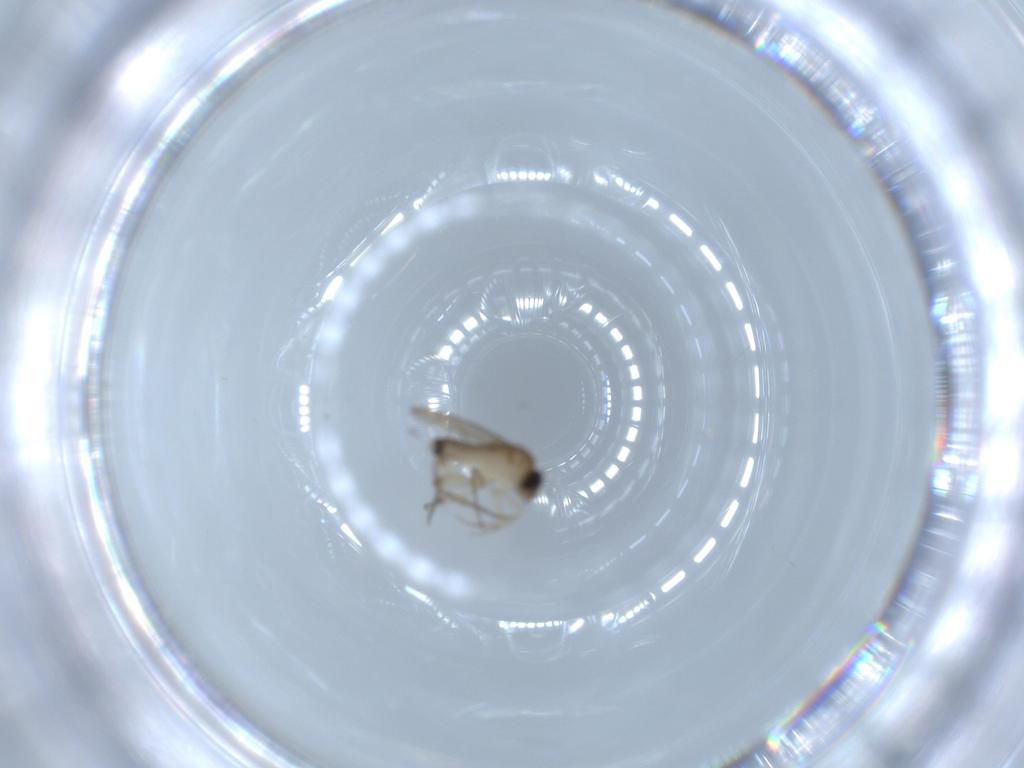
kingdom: Animalia
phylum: Arthropoda
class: Insecta
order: Diptera
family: Phoridae
